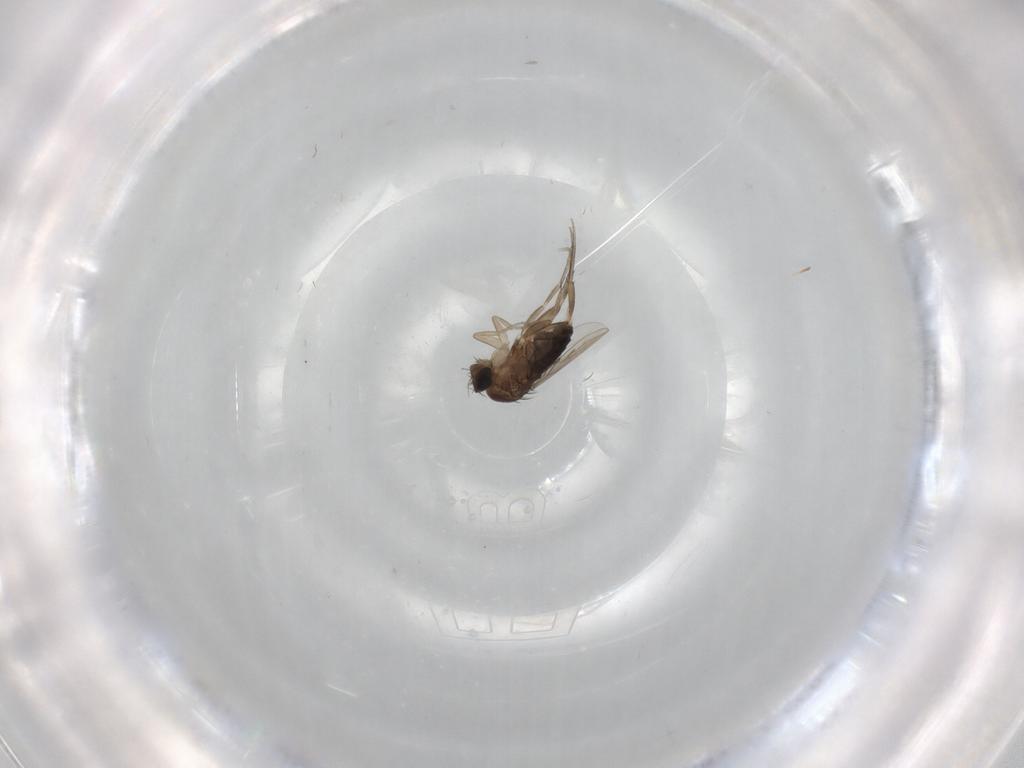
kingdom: Animalia
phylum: Arthropoda
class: Insecta
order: Diptera
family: Phoridae
